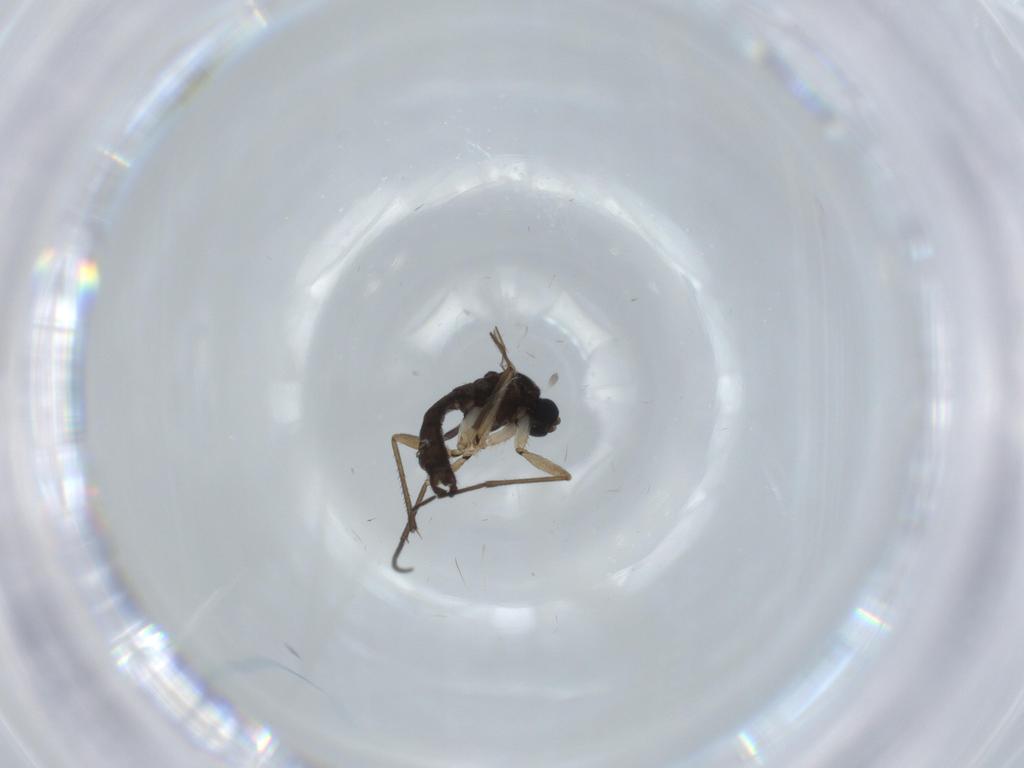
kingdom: Animalia
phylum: Arthropoda
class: Insecta
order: Diptera
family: Sciaridae
